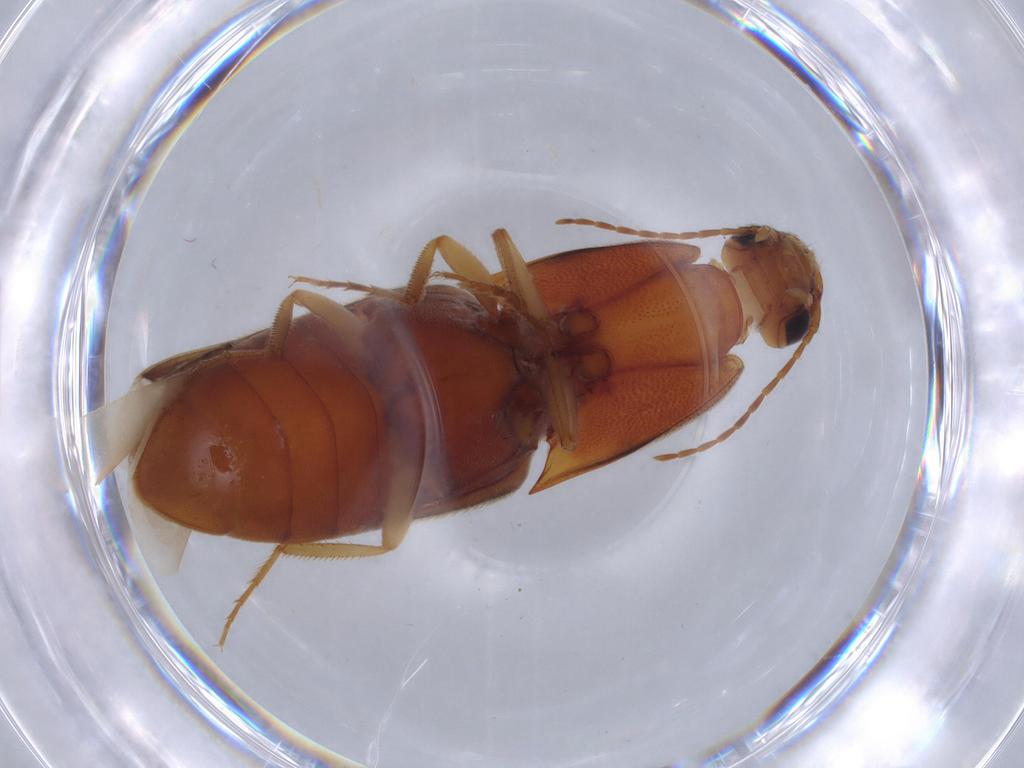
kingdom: Animalia
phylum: Arthropoda
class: Insecta
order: Coleoptera
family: Elateridae
